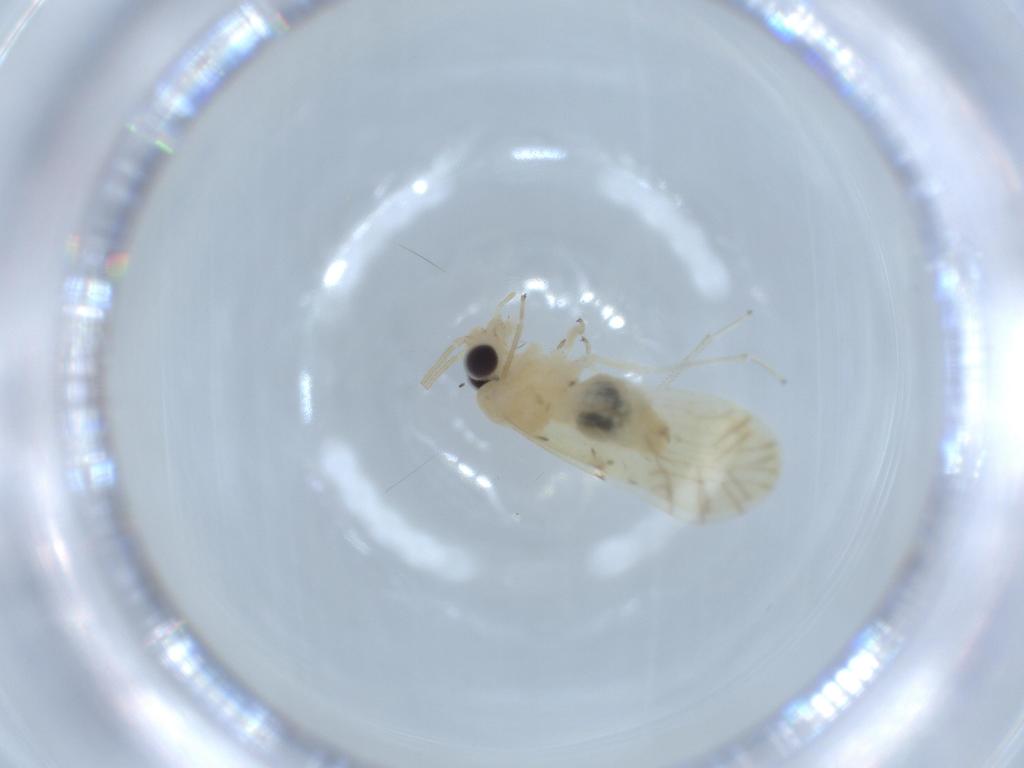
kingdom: Animalia
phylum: Arthropoda
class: Insecta
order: Psocodea
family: Caeciliusidae
